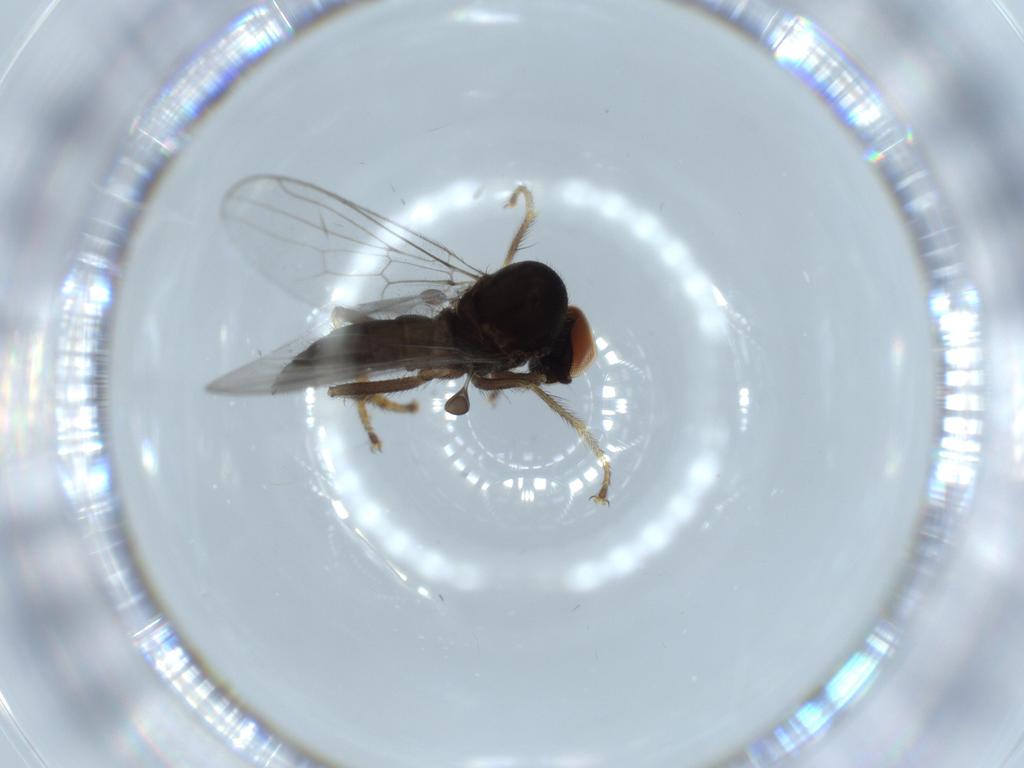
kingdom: Animalia
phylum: Arthropoda
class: Insecta
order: Diptera
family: Hybotidae
